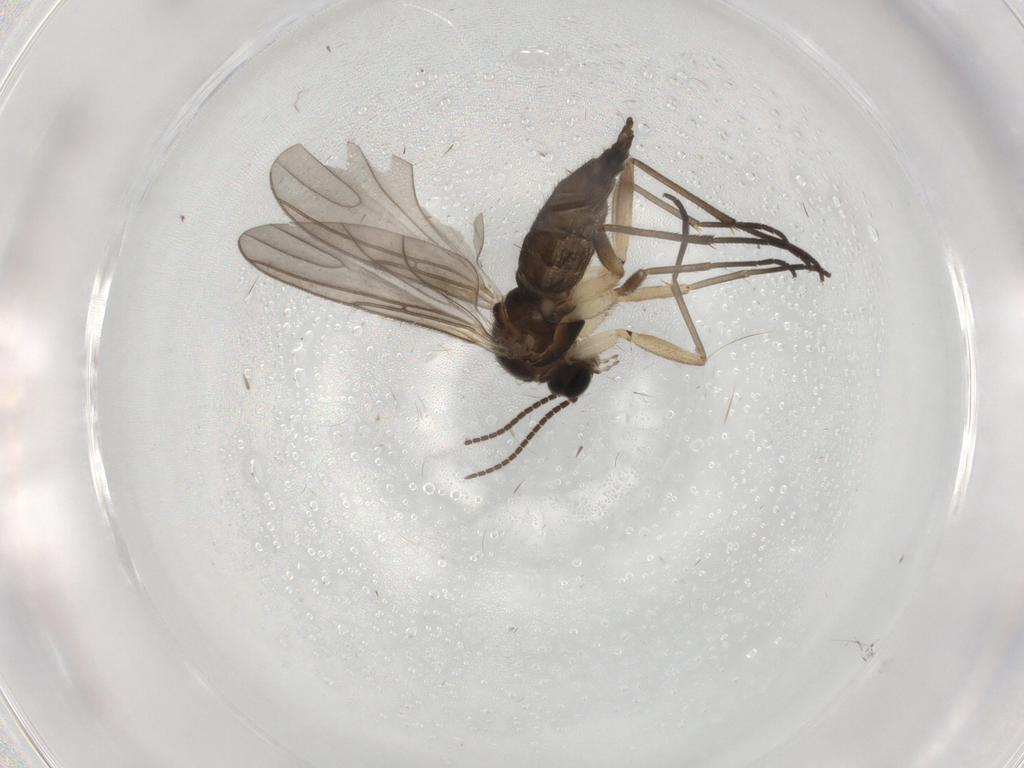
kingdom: Animalia
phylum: Arthropoda
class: Insecta
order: Diptera
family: Sciaridae
